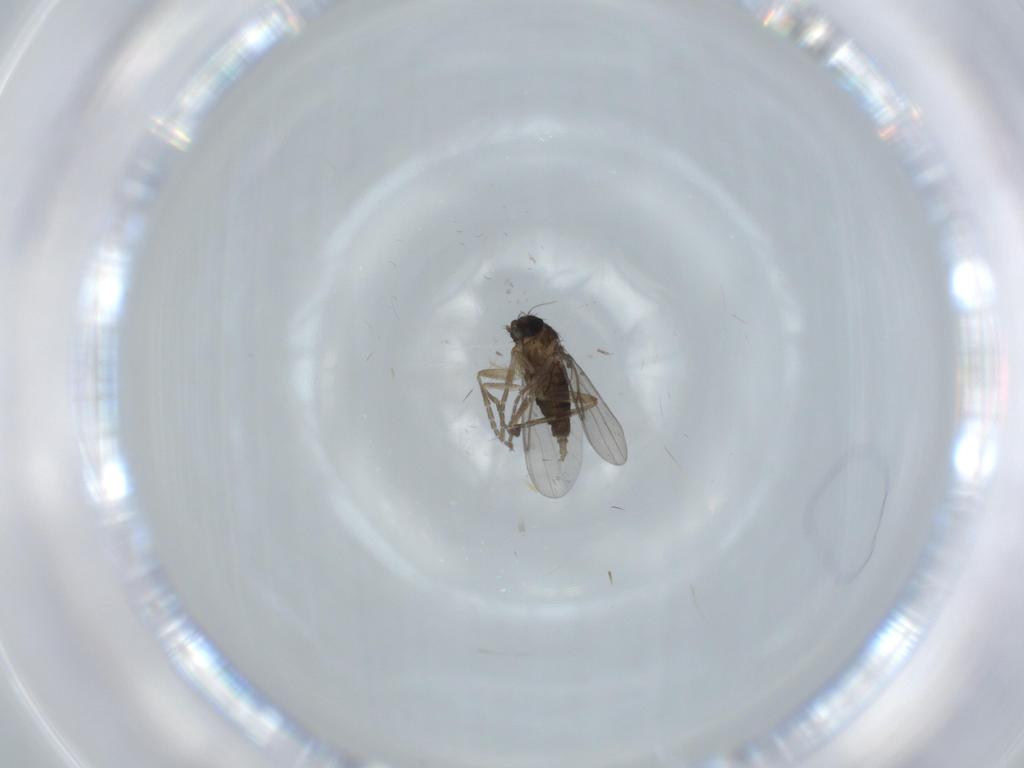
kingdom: Animalia
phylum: Arthropoda
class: Insecta
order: Diptera
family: Phoridae
